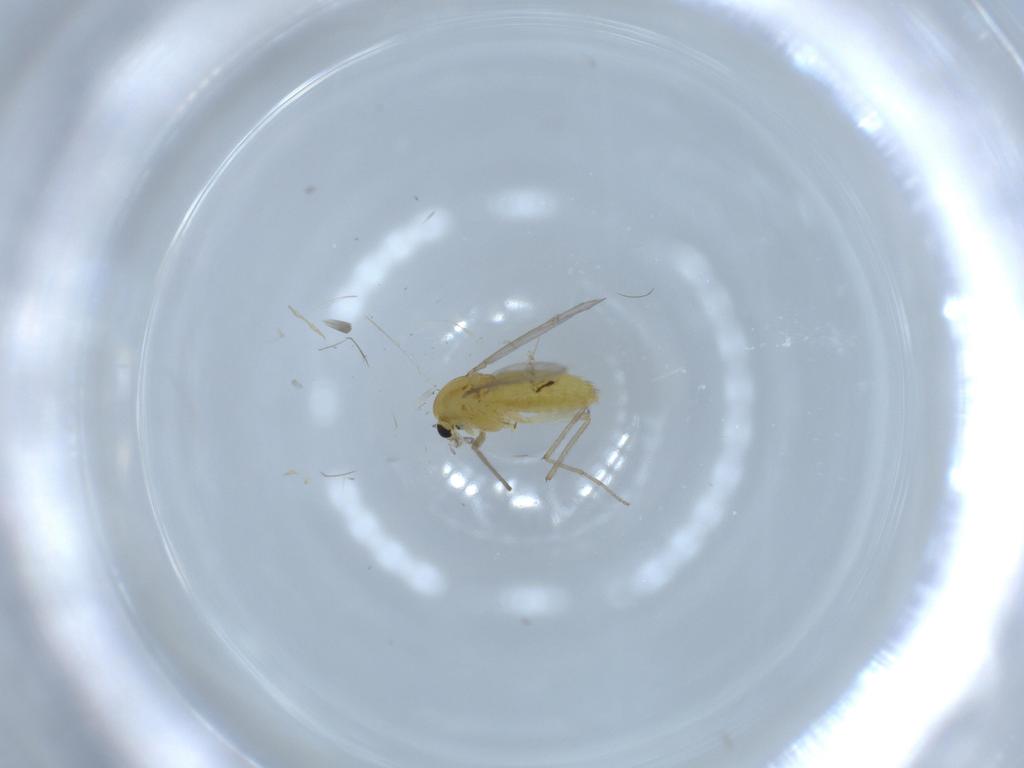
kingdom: Animalia
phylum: Arthropoda
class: Insecta
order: Diptera
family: Chironomidae
